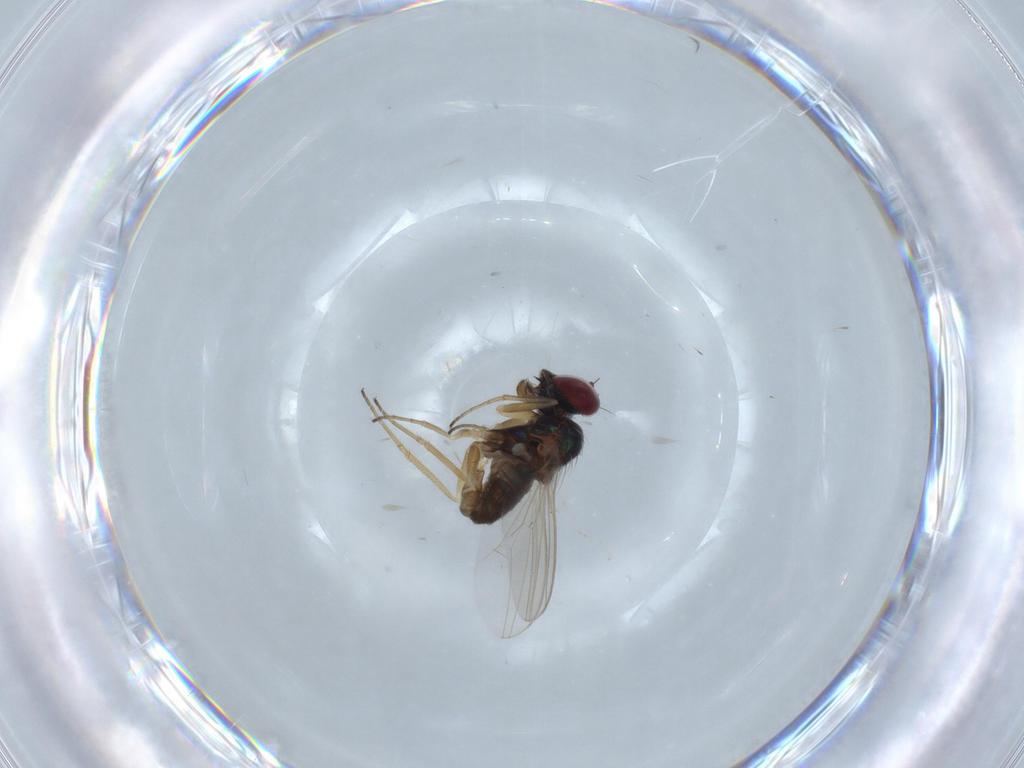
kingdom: Animalia
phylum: Arthropoda
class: Insecta
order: Diptera
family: Dolichopodidae
